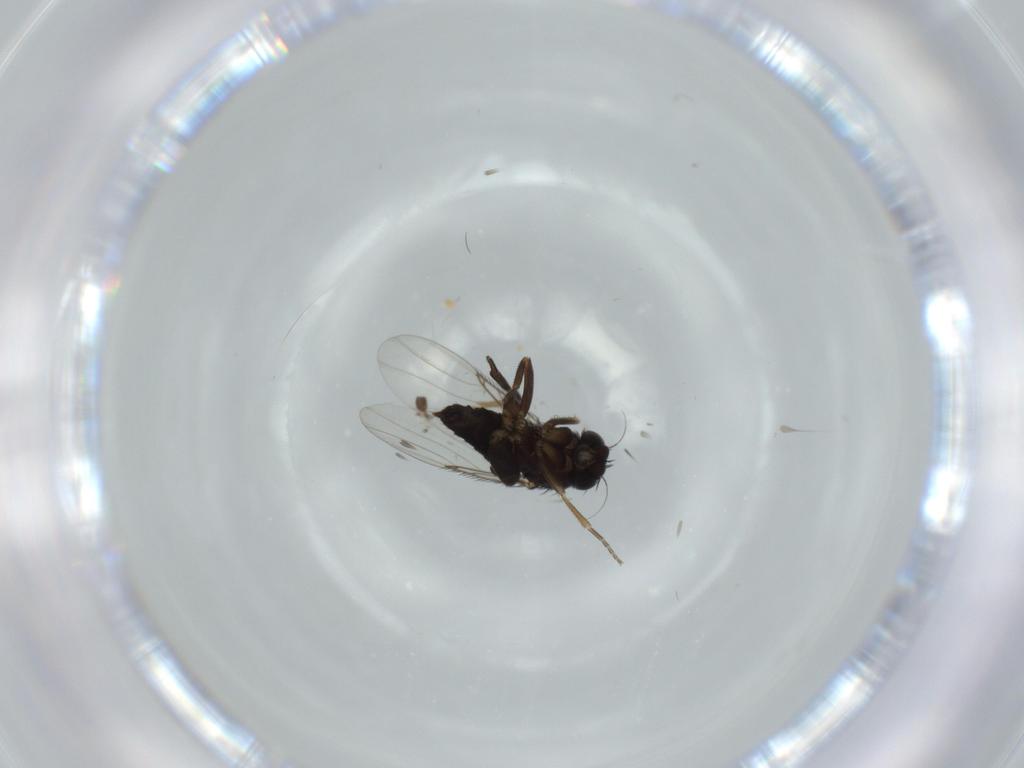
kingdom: Animalia
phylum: Arthropoda
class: Insecta
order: Diptera
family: Phoridae
